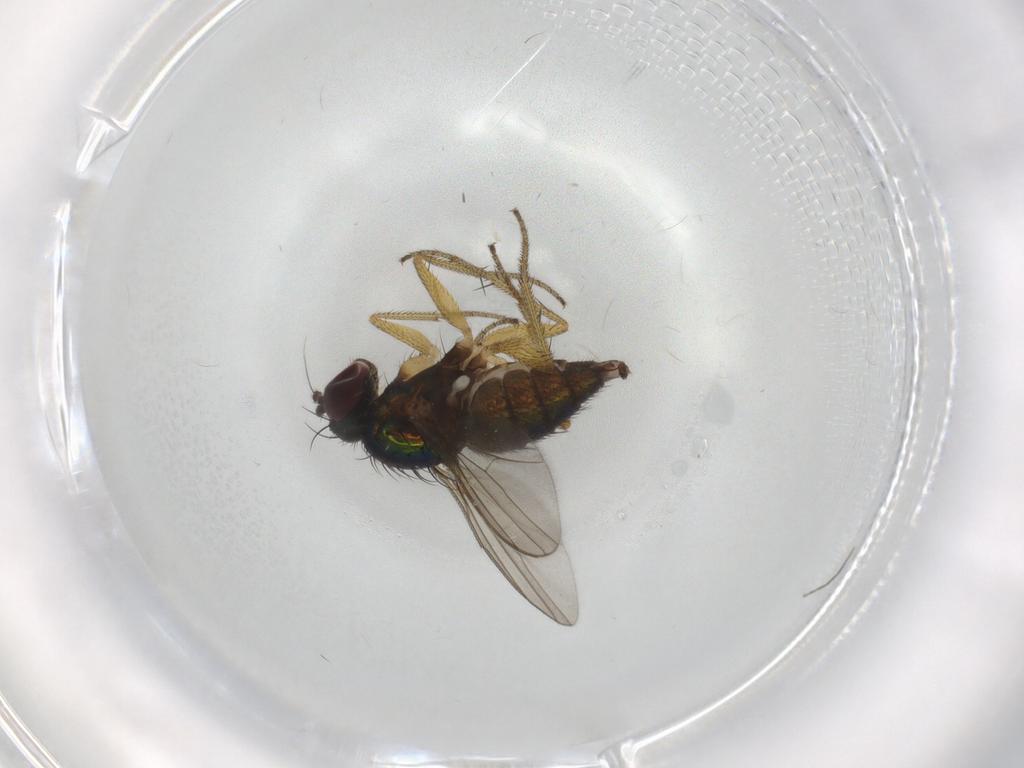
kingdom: Animalia
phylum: Arthropoda
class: Insecta
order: Diptera
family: Dolichopodidae
